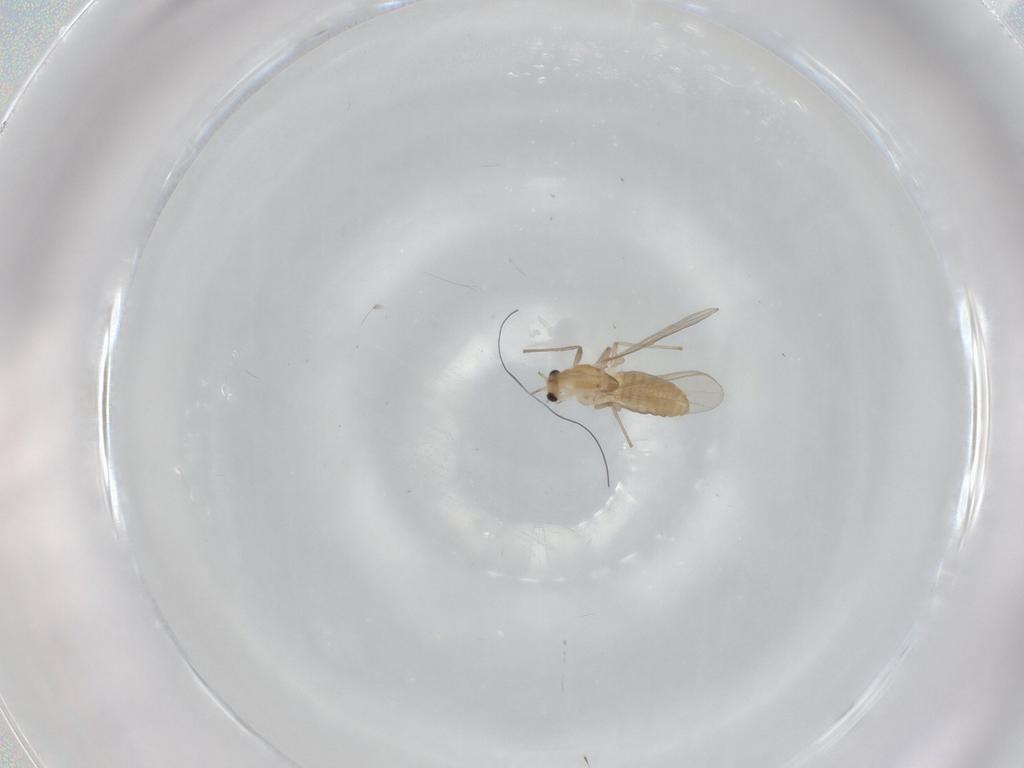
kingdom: Animalia
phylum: Arthropoda
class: Insecta
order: Diptera
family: Chironomidae
